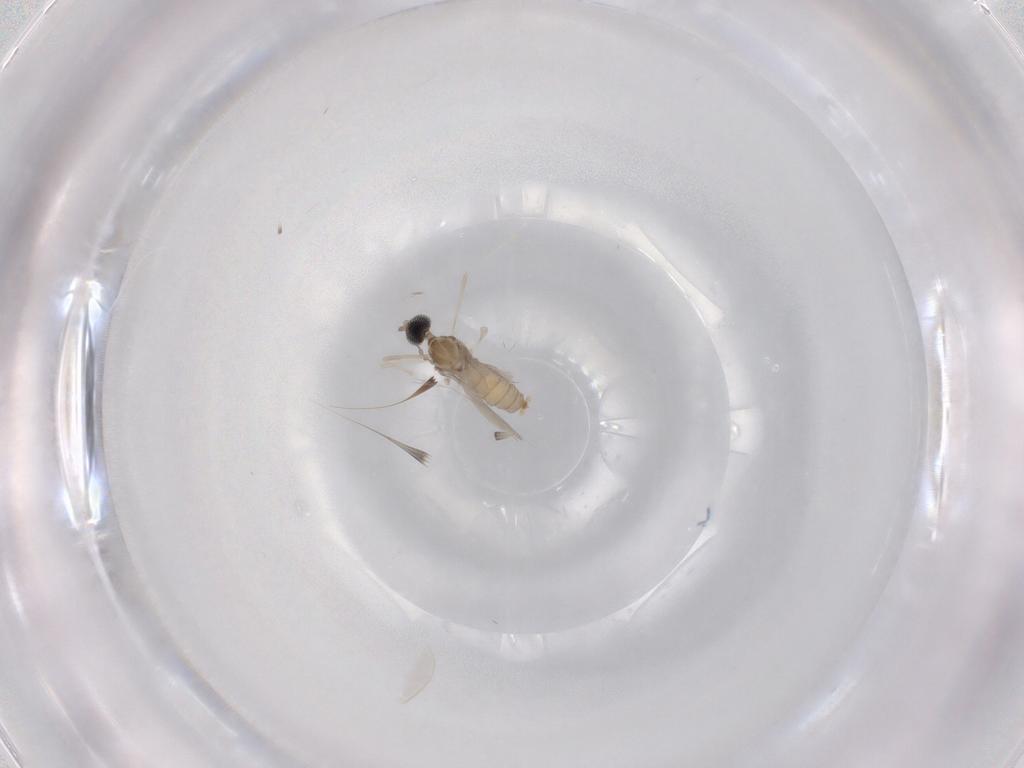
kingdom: Animalia
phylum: Arthropoda
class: Insecta
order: Diptera
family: Cecidomyiidae
